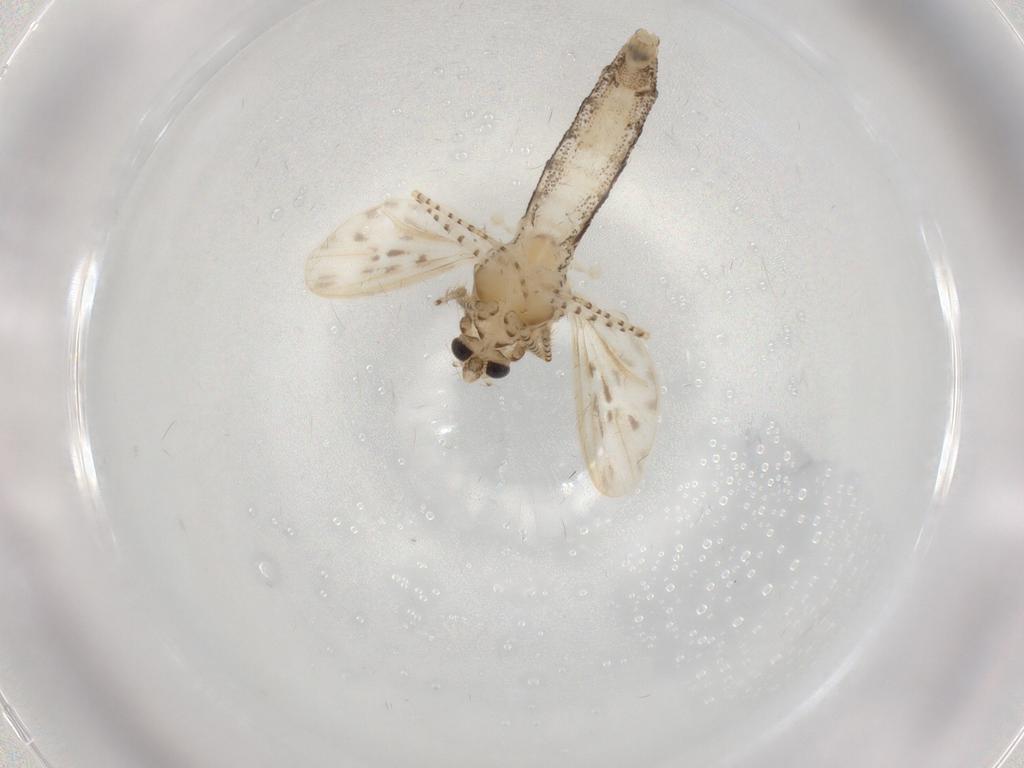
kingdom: Animalia
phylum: Arthropoda
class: Insecta
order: Diptera
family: Chaoboridae
